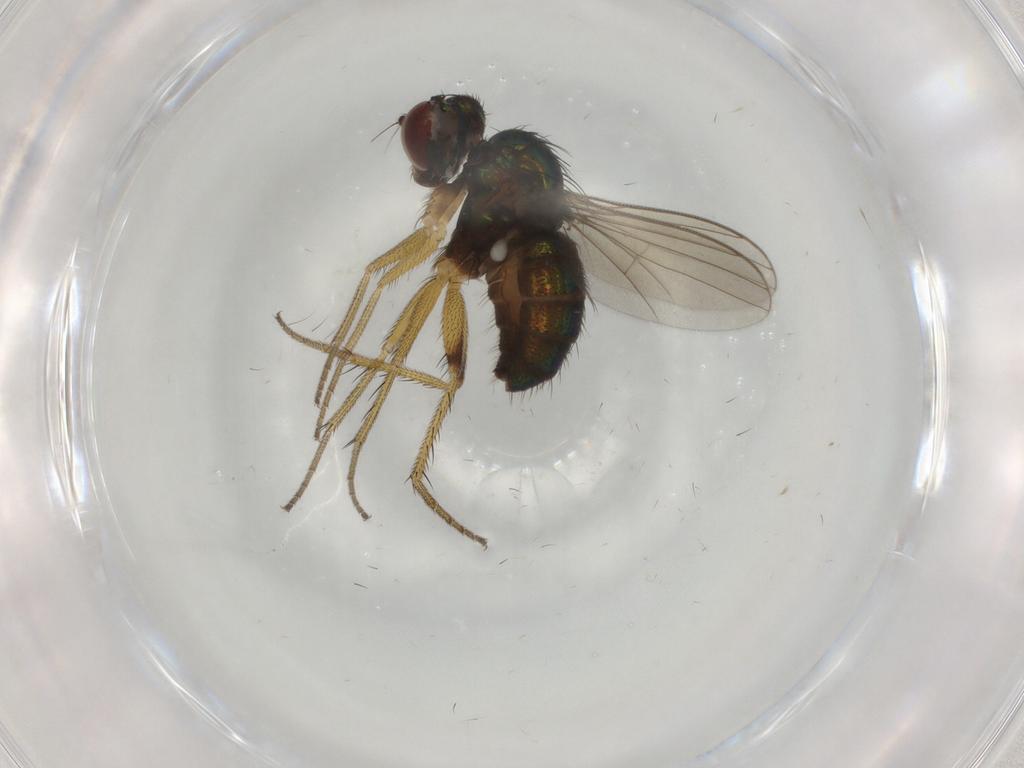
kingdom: Animalia
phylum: Arthropoda
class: Insecta
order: Diptera
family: Dolichopodidae
